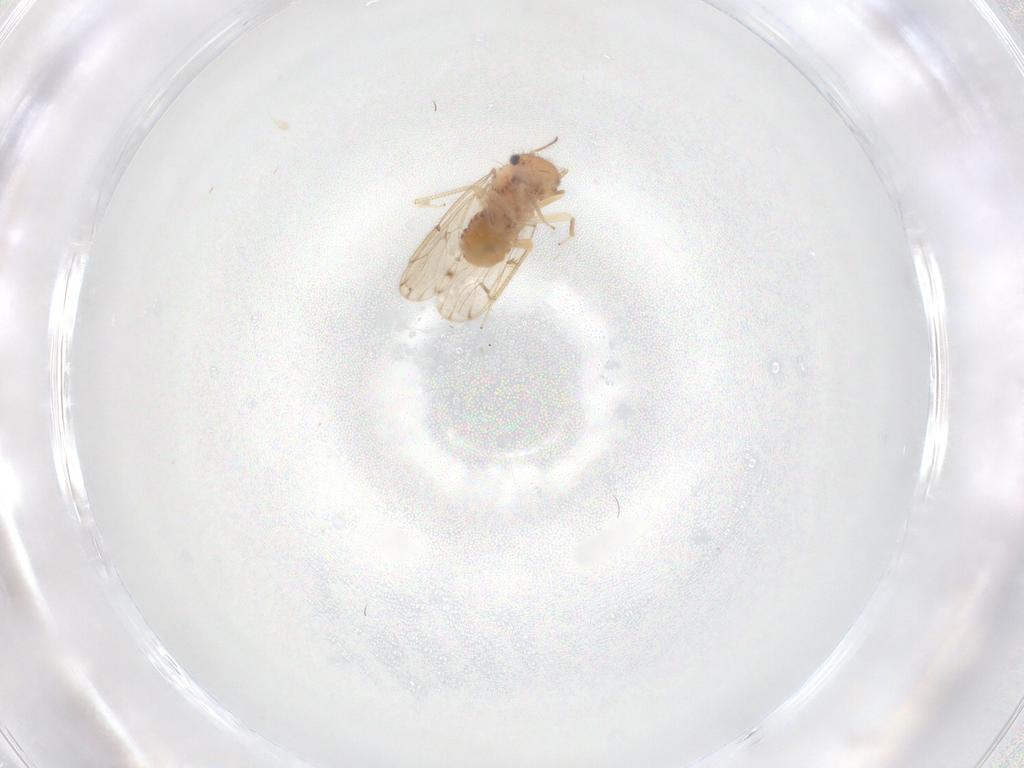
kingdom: Animalia
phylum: Arthropoda
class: Insecta
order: Psocodea
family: Ectopsocidae
